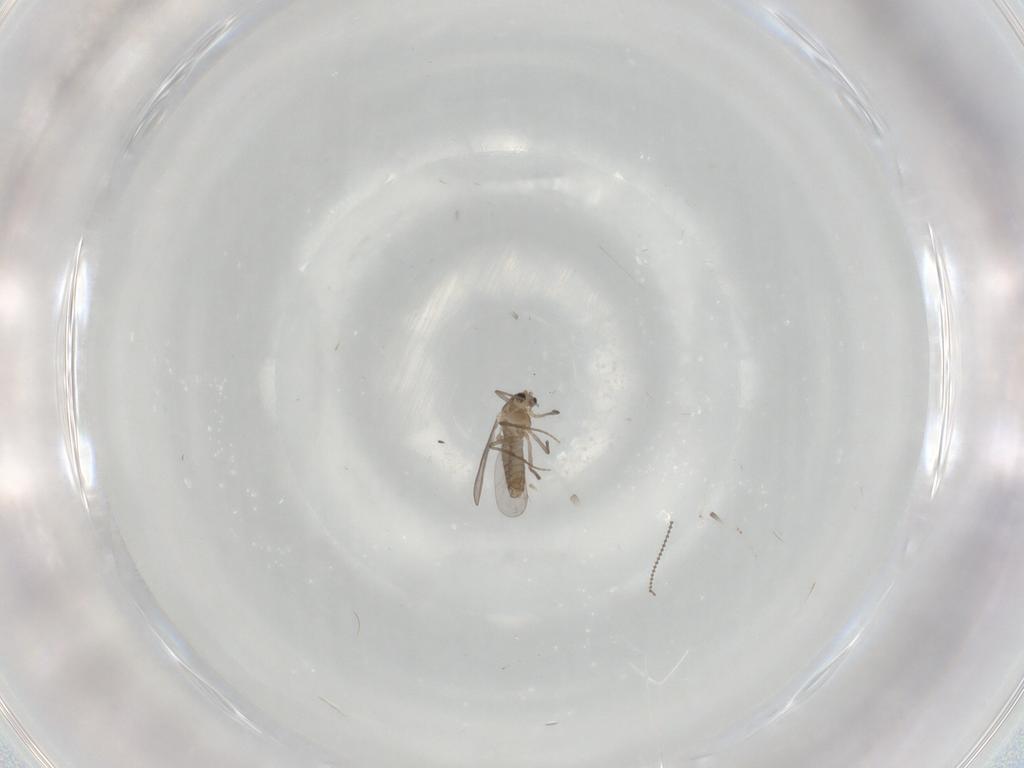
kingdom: Animalia
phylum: Arthropoda
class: Insecta
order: Diptera
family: Chironomidae
